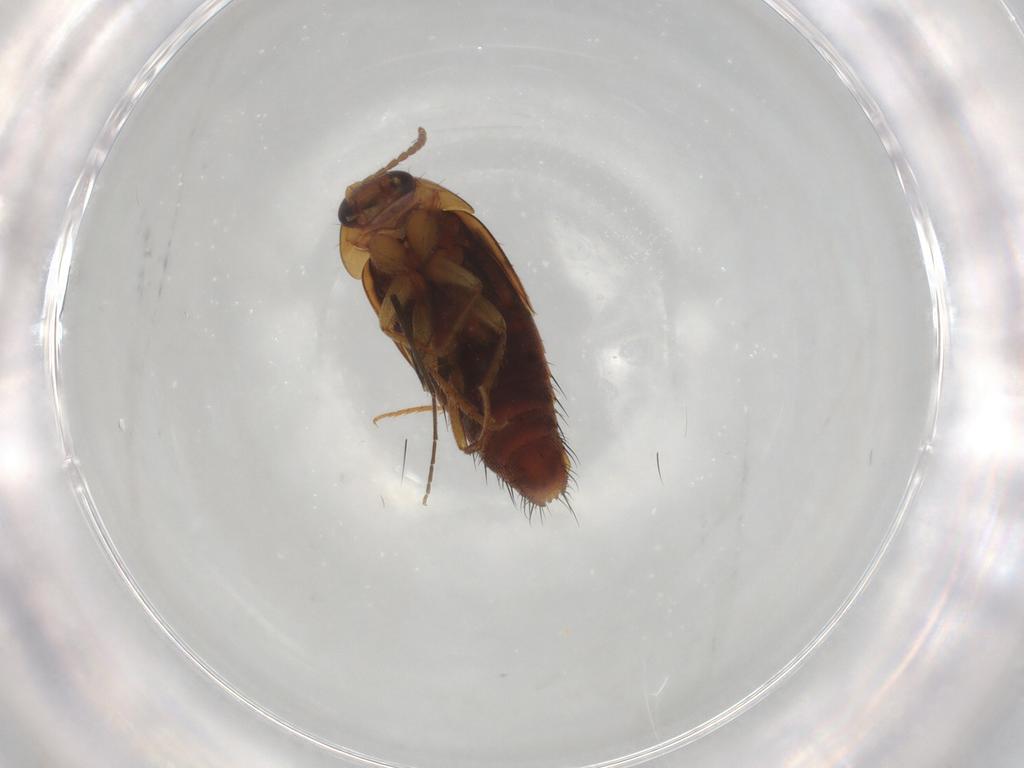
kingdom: Animalia
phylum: Arthropoda
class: Insecta
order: Coleoptera
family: Staphylinidae
